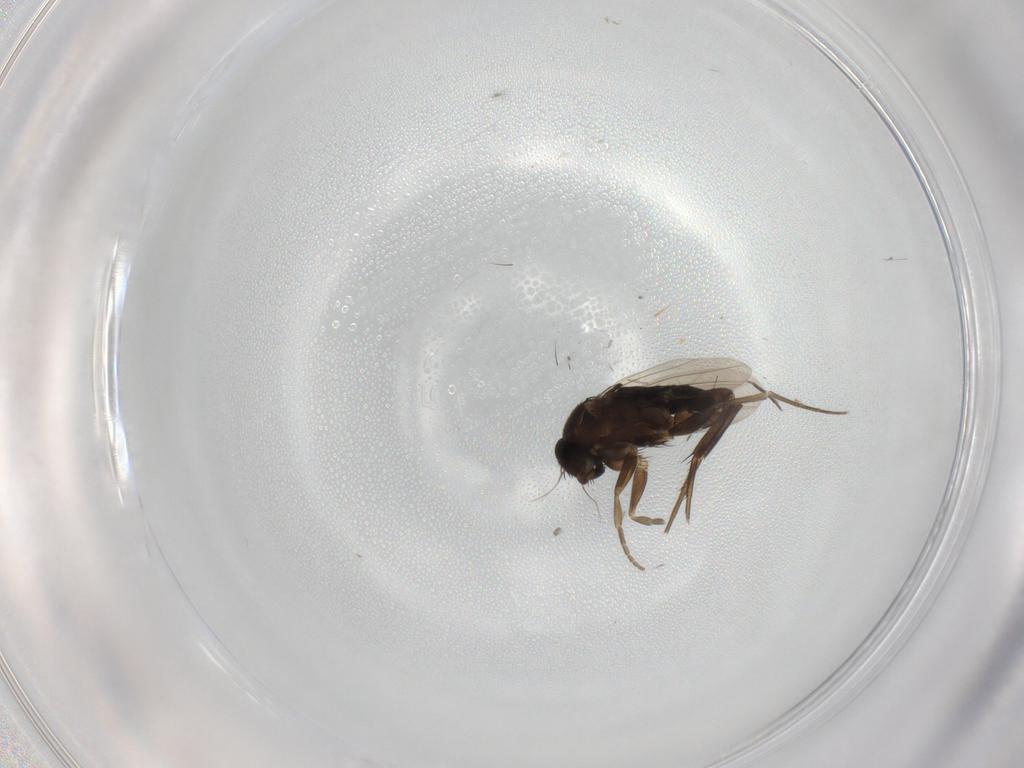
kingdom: Animalia
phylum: Arthropoda
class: Insecta
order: Diptera
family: Phoridae
